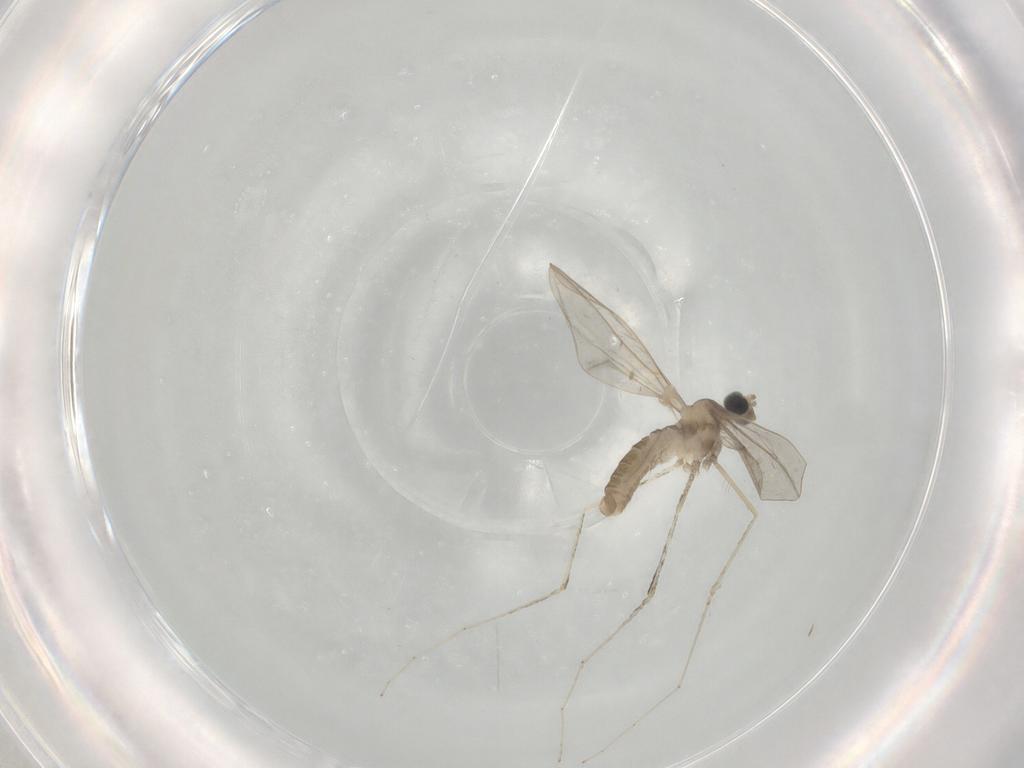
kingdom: Animalia
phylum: Arthropoda
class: Insecta
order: Diptera
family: Cecidomyiidae
